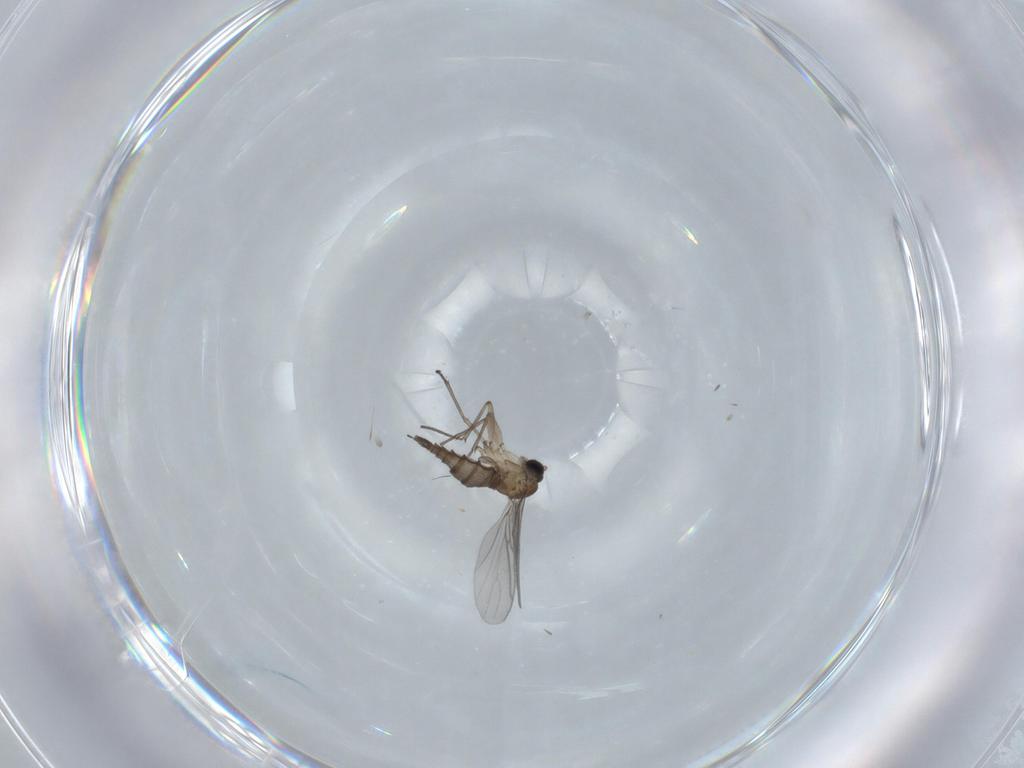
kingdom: Animalia
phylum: Arthropoda
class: Insecta
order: Diptera
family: Sciaridae
